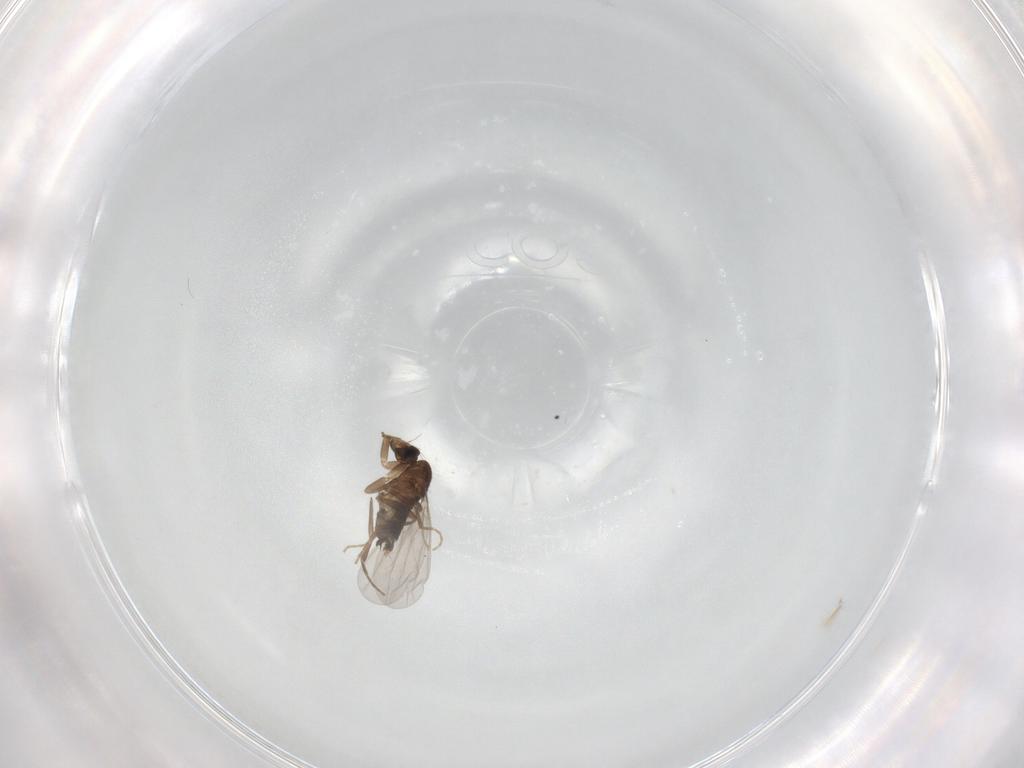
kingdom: Animalia
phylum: Arthropoda
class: Insecta
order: Diptera
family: Phoridae
